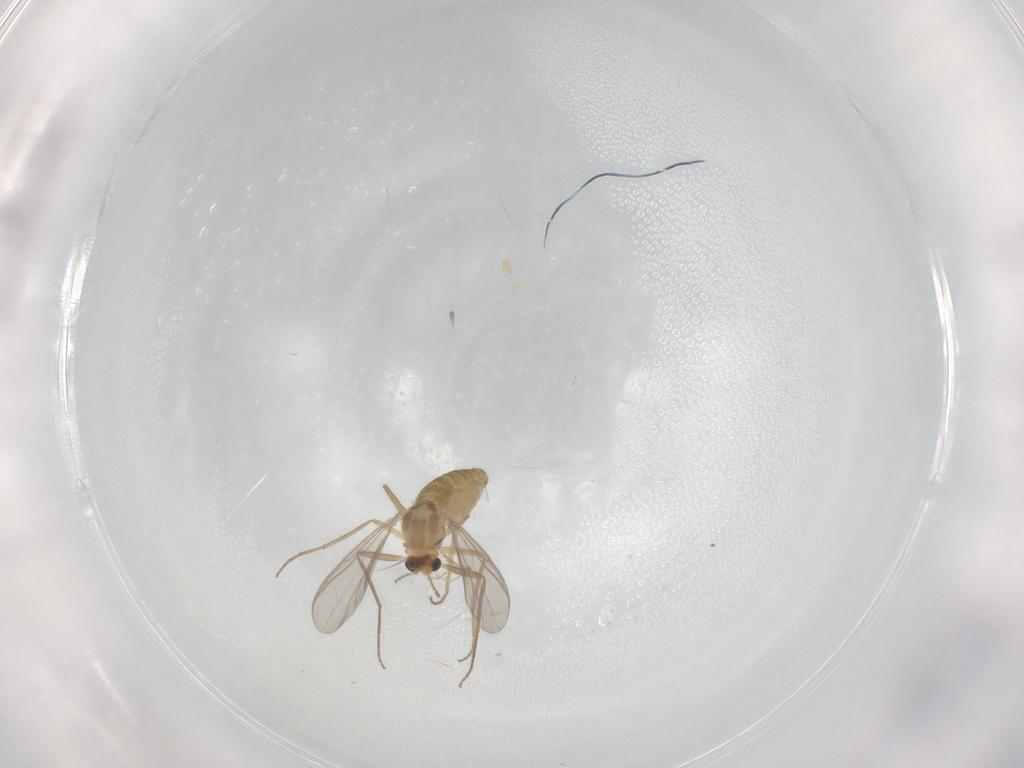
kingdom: Animalia
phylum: Arthropoda
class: Insecta
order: Diptera
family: Chironomidae
